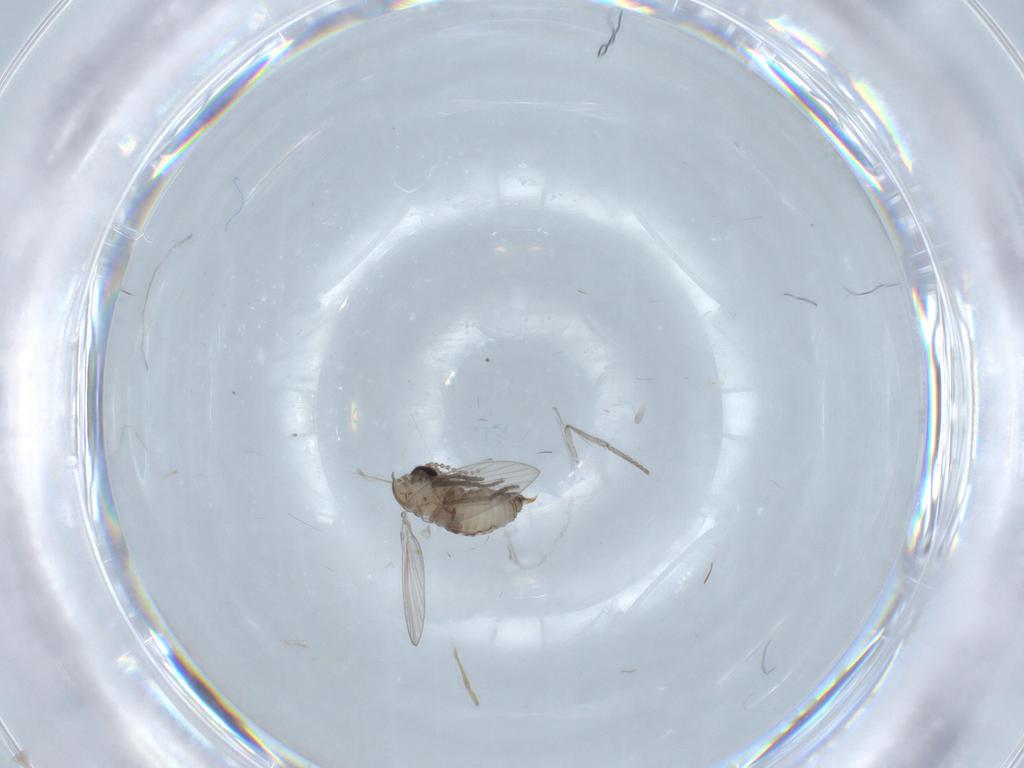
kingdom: Animalia
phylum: Arthropoda
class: Insecta
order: Diptera
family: Psychodidae
